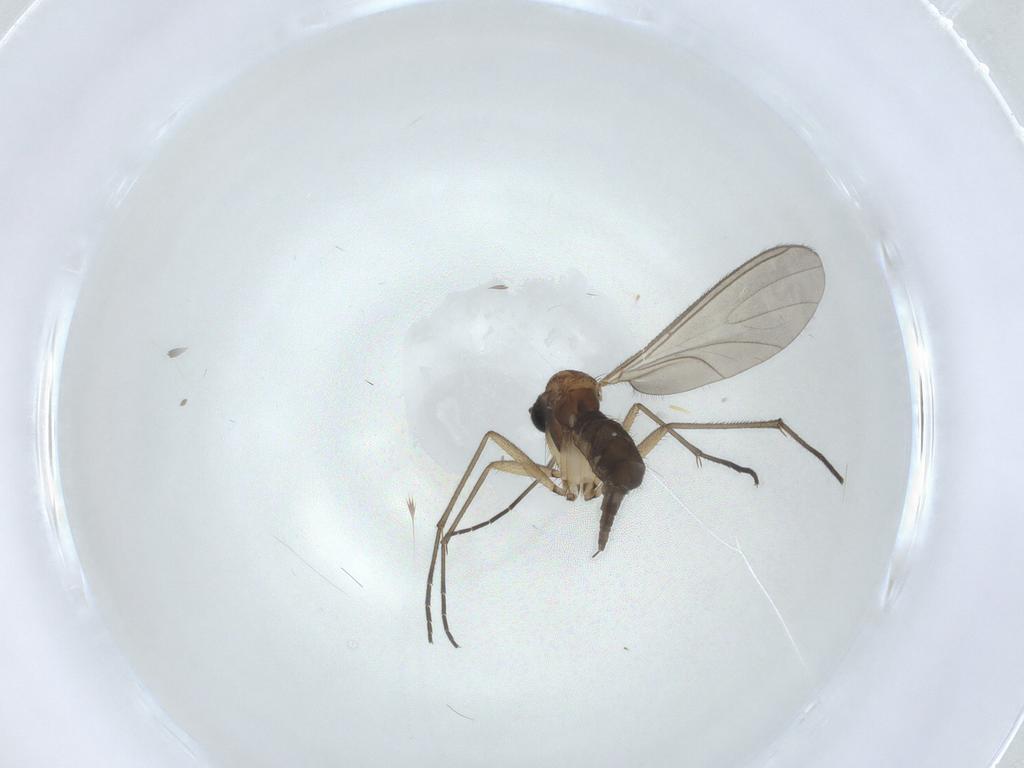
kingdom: Animalia
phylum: Arthropoda
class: Insecta
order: Diptera
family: Sciaridae
